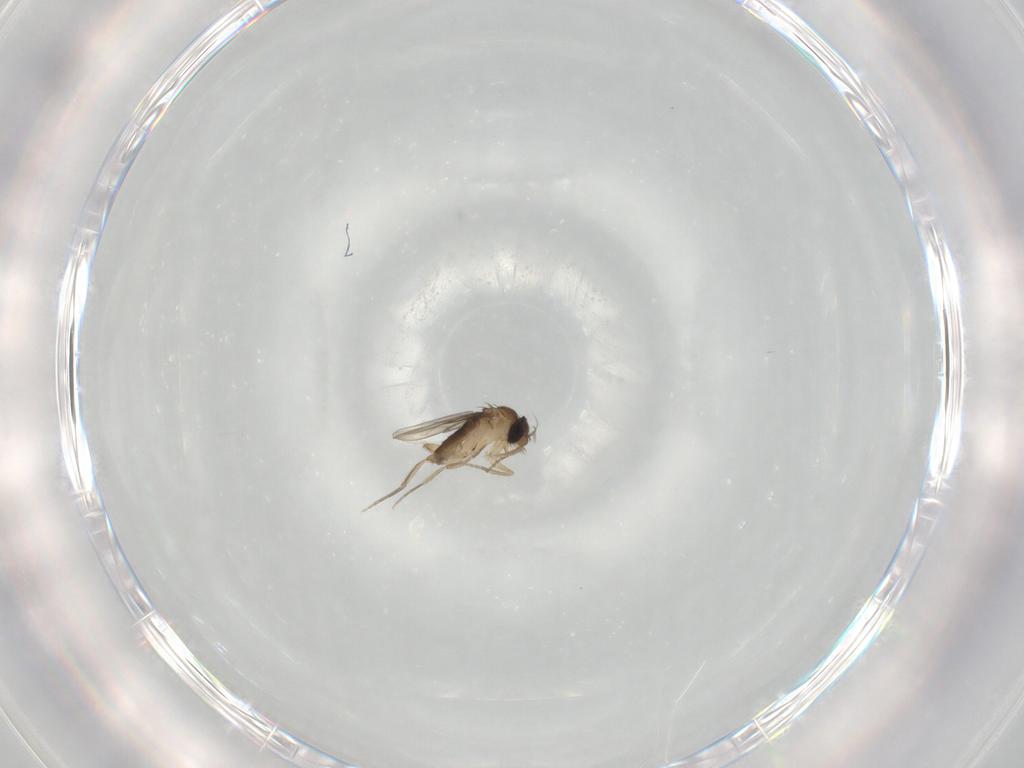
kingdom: Animalia
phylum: Arthropoda
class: Insecta
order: Diptera
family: Phoridae
